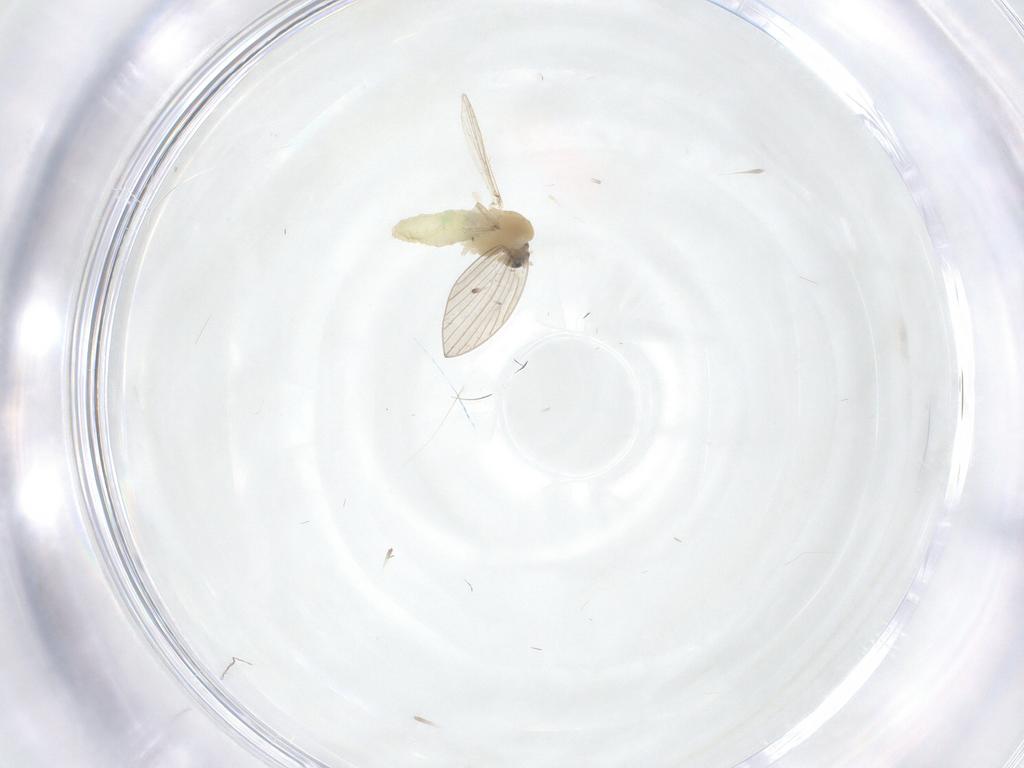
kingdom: Animalia
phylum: Arthropoda
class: Insecta
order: Diptera
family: Chironomidae
